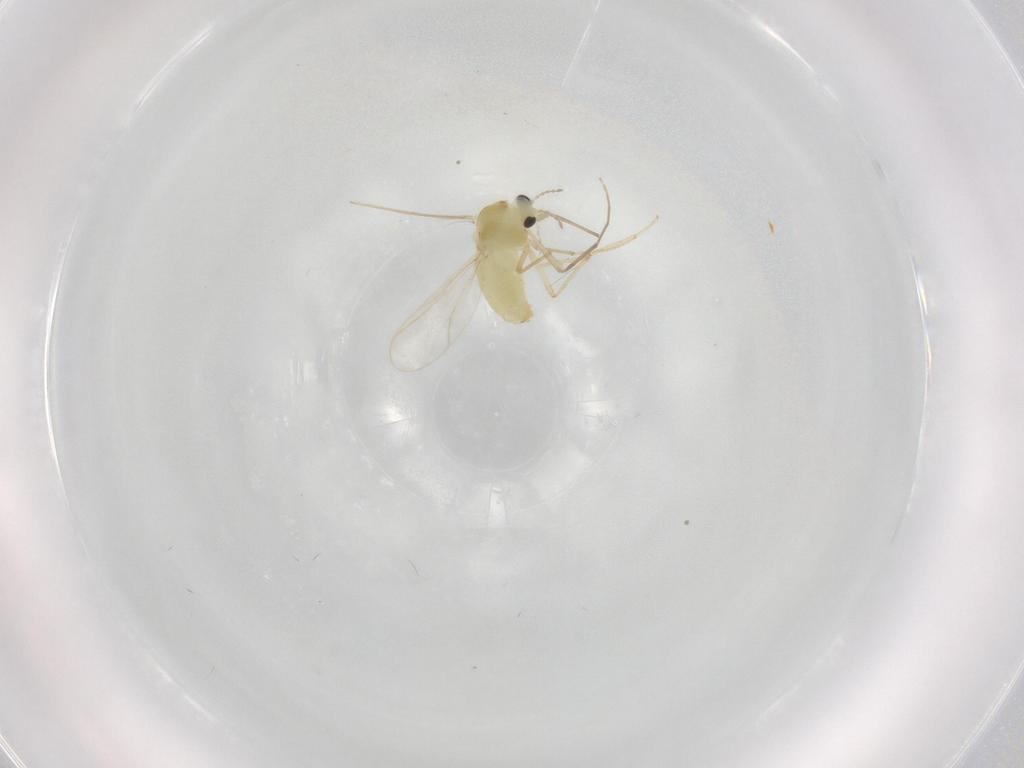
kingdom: Animalia
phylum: Arthropoda
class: Insecta
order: Diptera
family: Chironomidae
